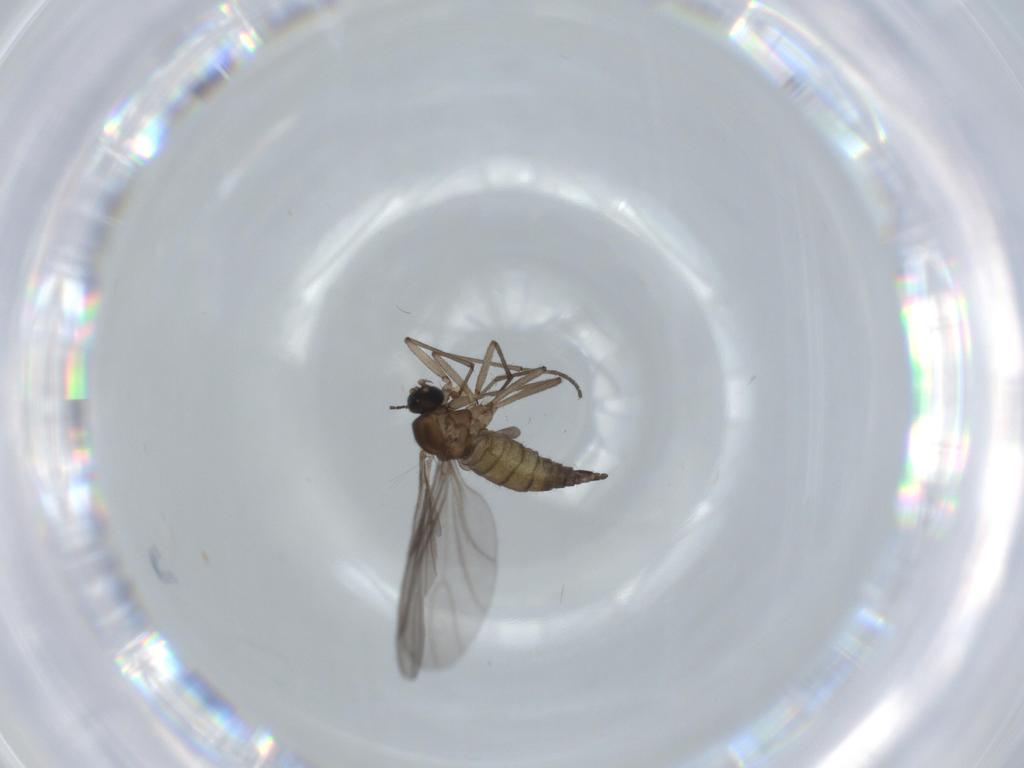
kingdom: Animalia
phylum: Arthropoda
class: Insecta
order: Diptera
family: Sciaridae
